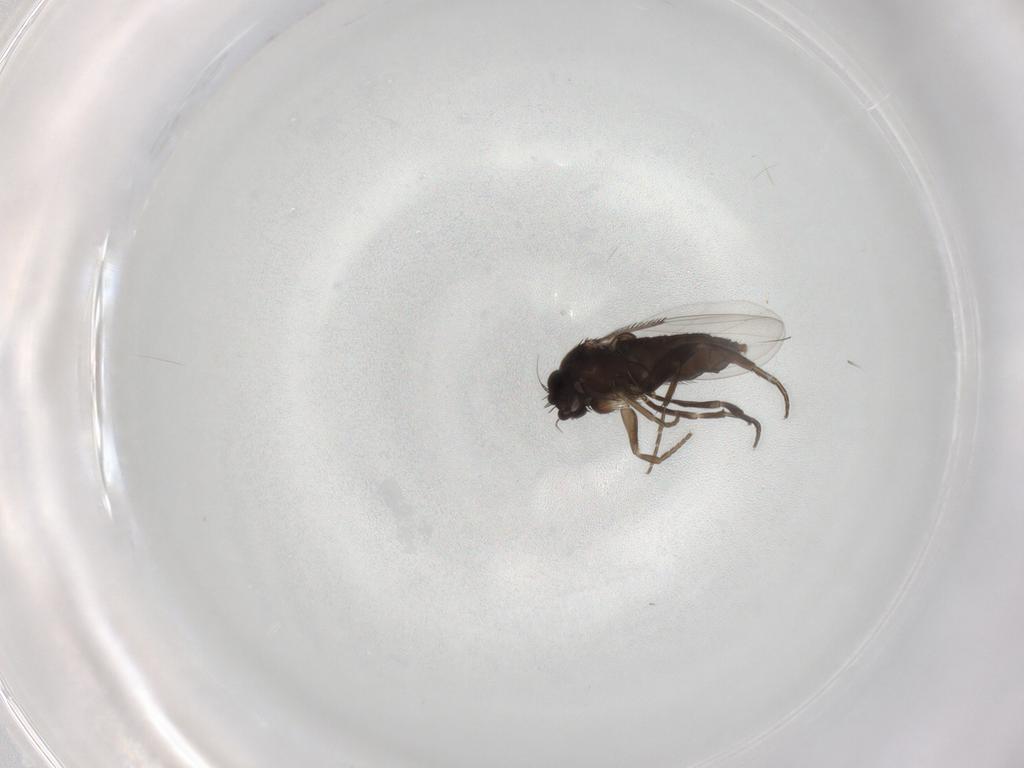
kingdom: Animalia
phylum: Arthropoda
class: Insecta
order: Diptera
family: Phoridae
